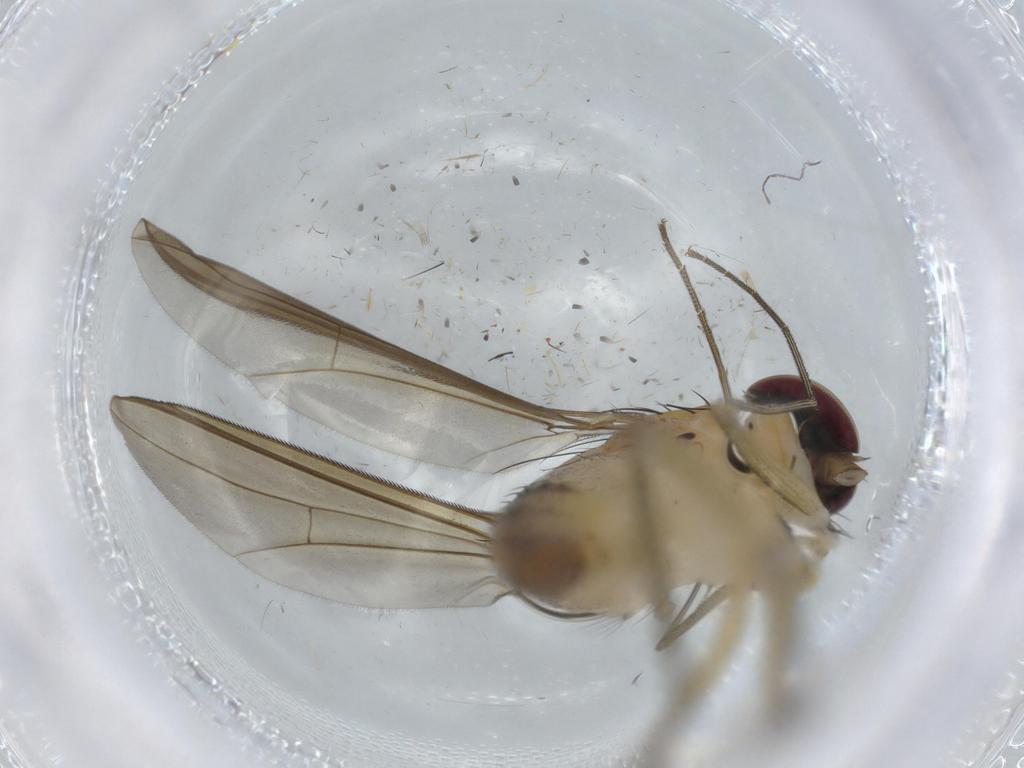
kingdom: Animalia
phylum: Arthropoda
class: Insecta
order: Diptera
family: Dolichopodidae
